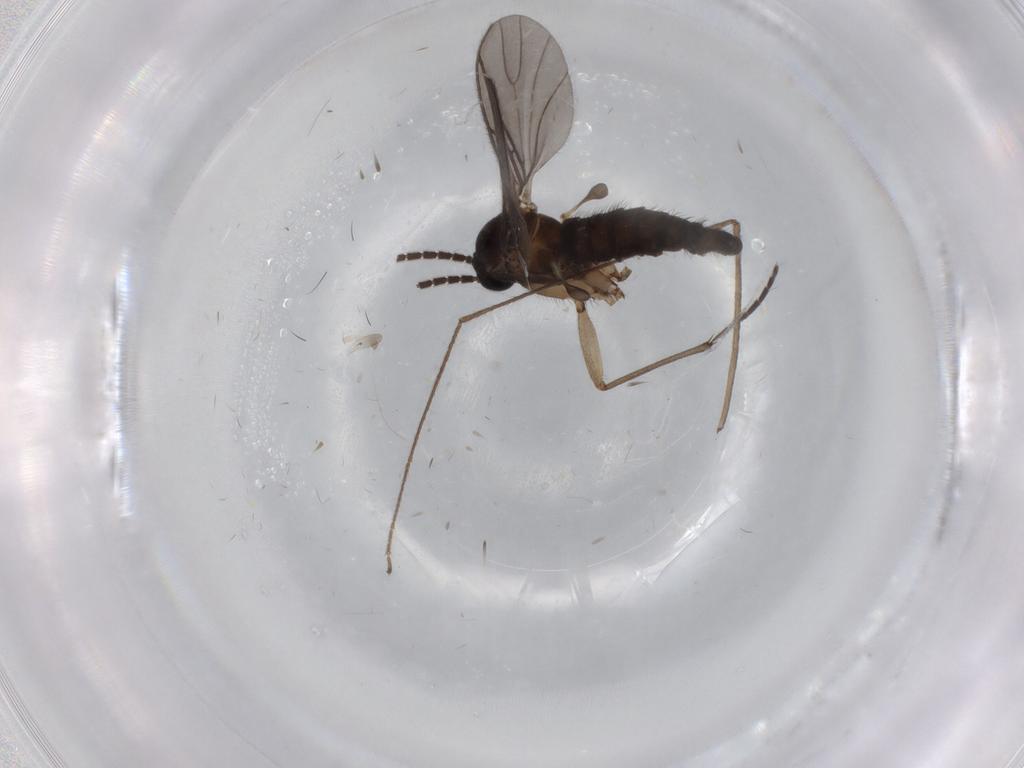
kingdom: Animalia
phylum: Arthropoda
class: Insecta
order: Diptera
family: Sciaridae
